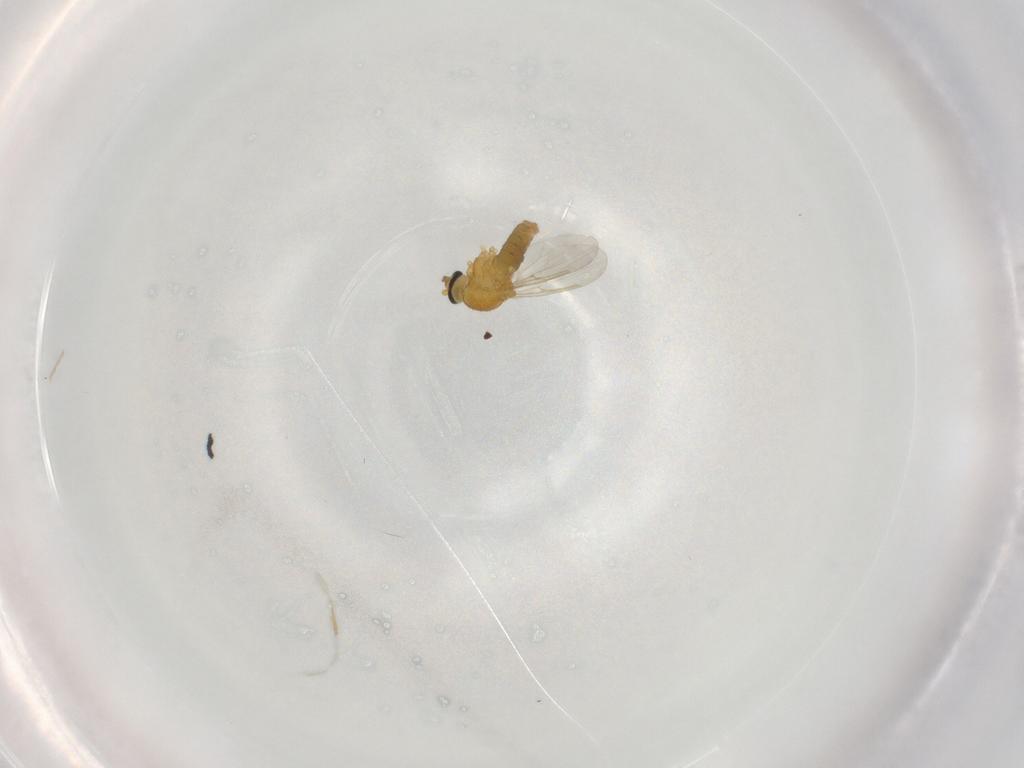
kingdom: Animalia
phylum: Arthropoda
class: Insecta
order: Diptera
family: Ceratopogonidae
